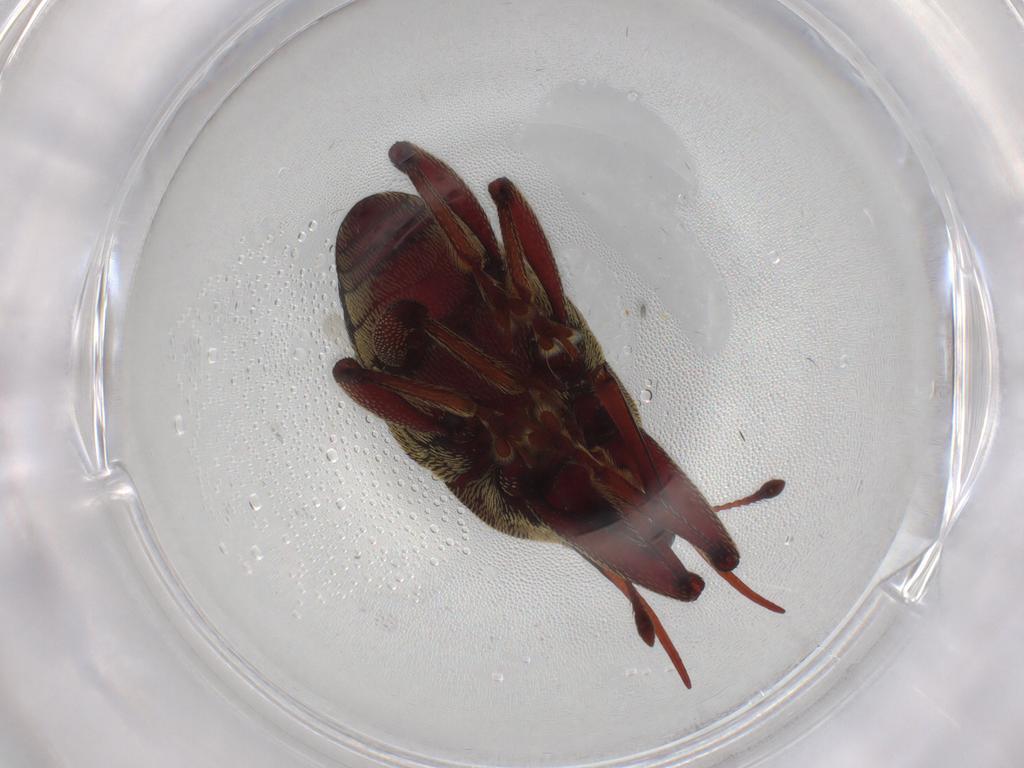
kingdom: Animalia
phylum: Arthropoda
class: Insecta
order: Coleoptera
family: Curculionidae
